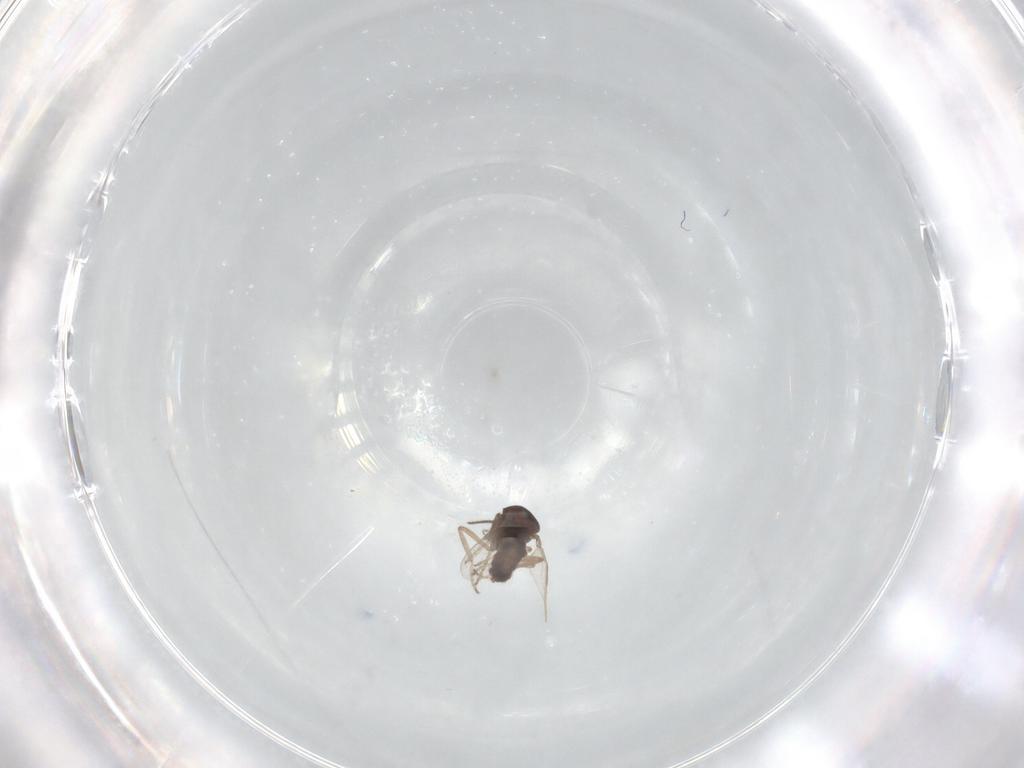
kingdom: Animalia
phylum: Arthropoda
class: Insecta
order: Diptera
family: Ceratopogonidae
